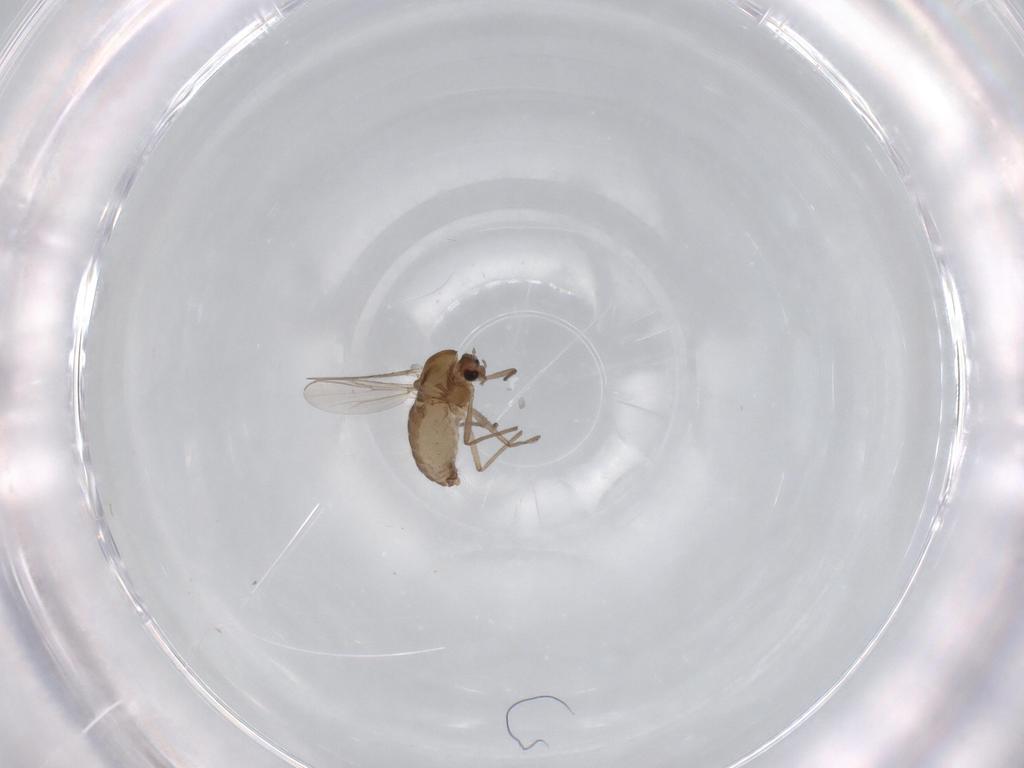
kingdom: Animalia
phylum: Arthropoda
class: Insecta
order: Diptera
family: Chironomidae
